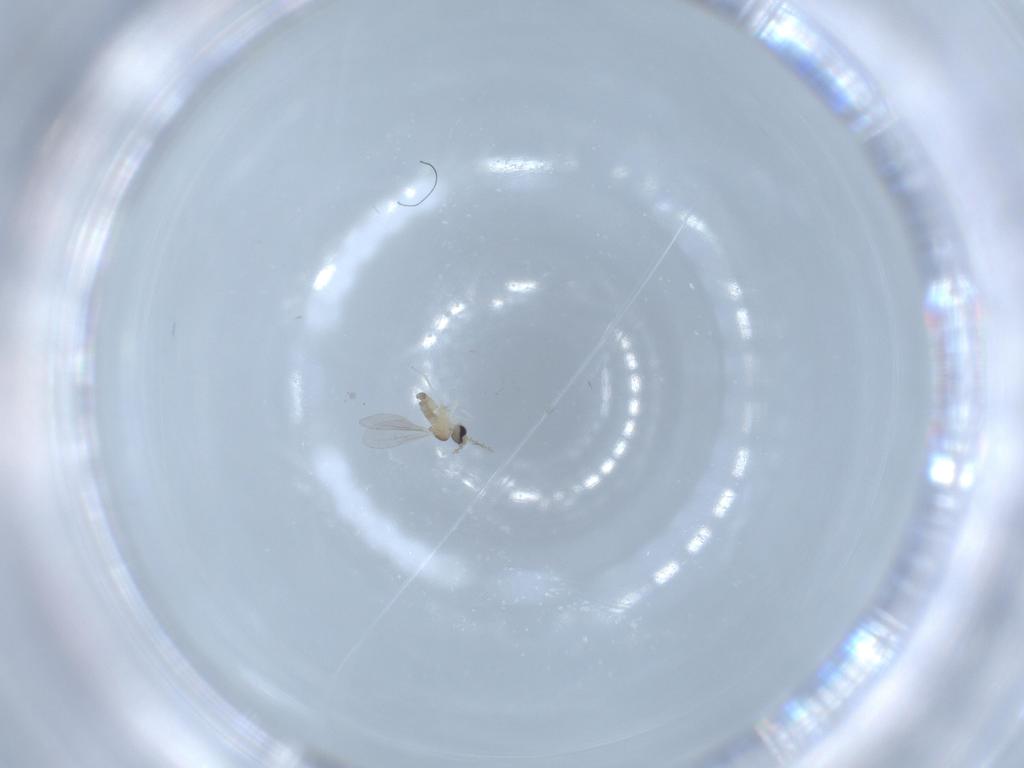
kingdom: Animalia
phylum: Arthropoda
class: Insecta
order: Diptera
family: Cecidomyiidae
